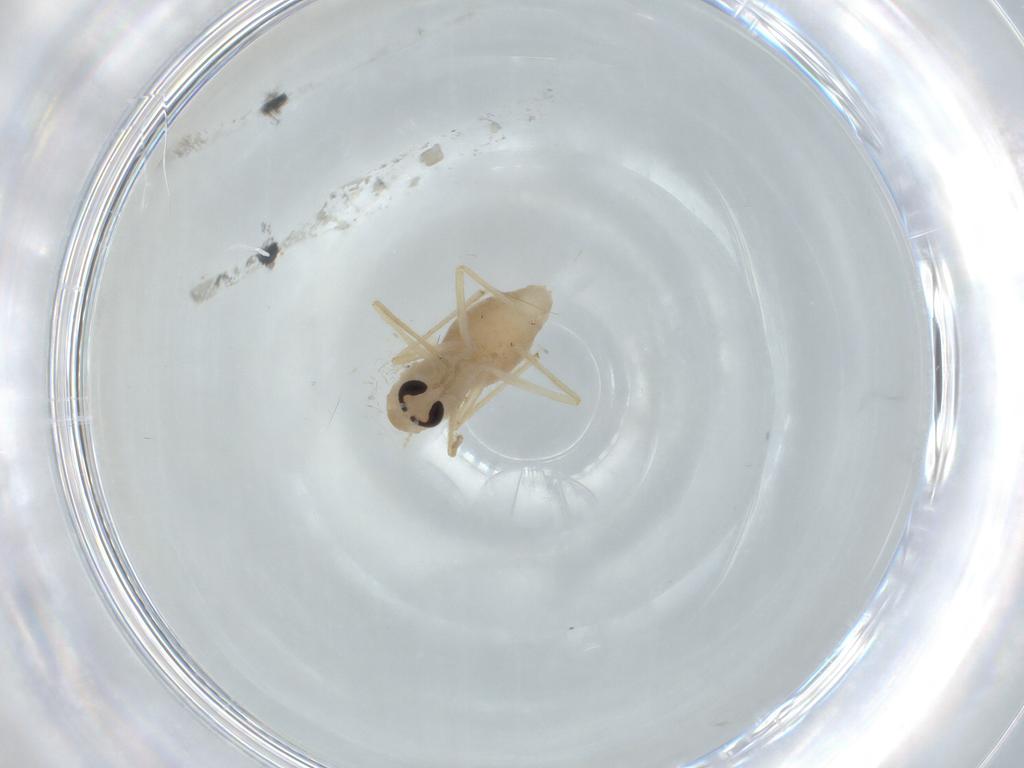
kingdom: Animalia
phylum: Arthropoda
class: Insecta
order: Diptera
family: Chironomidae
